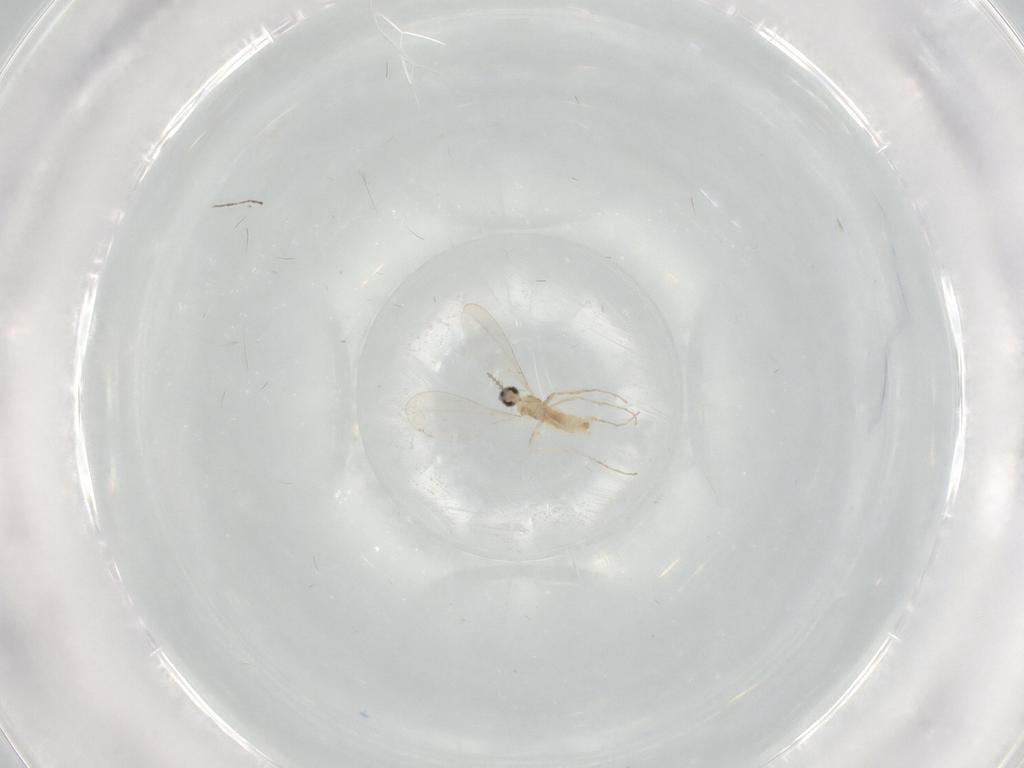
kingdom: Animalia
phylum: Arthropoda
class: Insecta
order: Diptera
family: Cecidomyiidae
